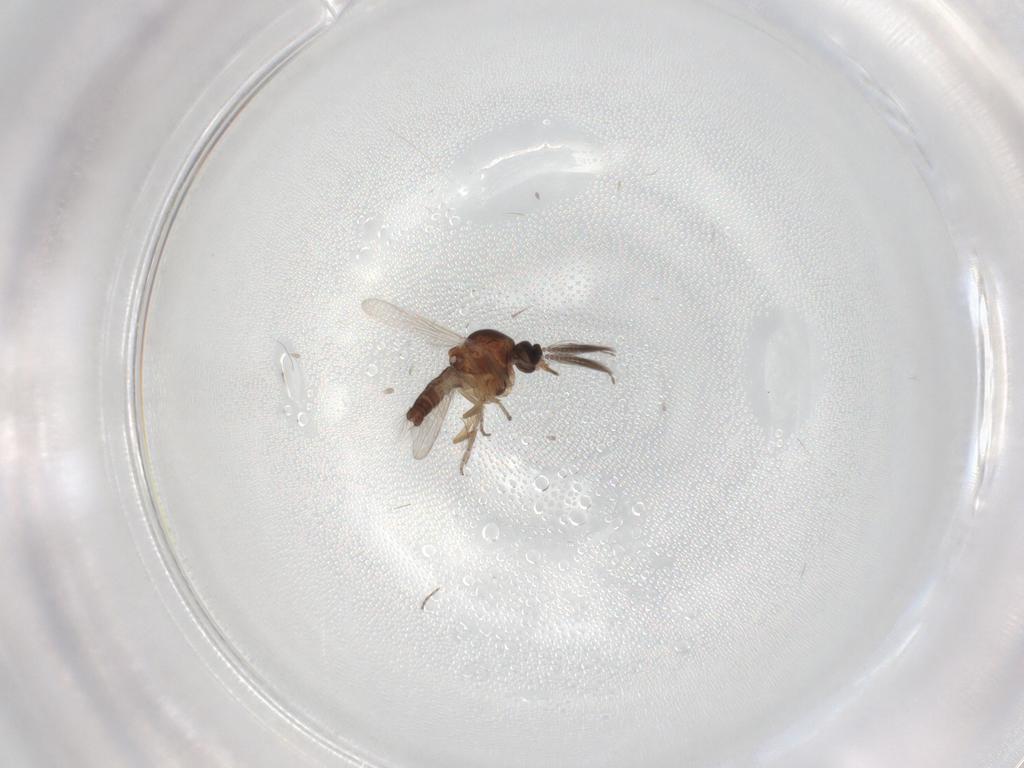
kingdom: Animalia
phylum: Arthropoda
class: Insecta
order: Diptera
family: Ceratopogonidae
